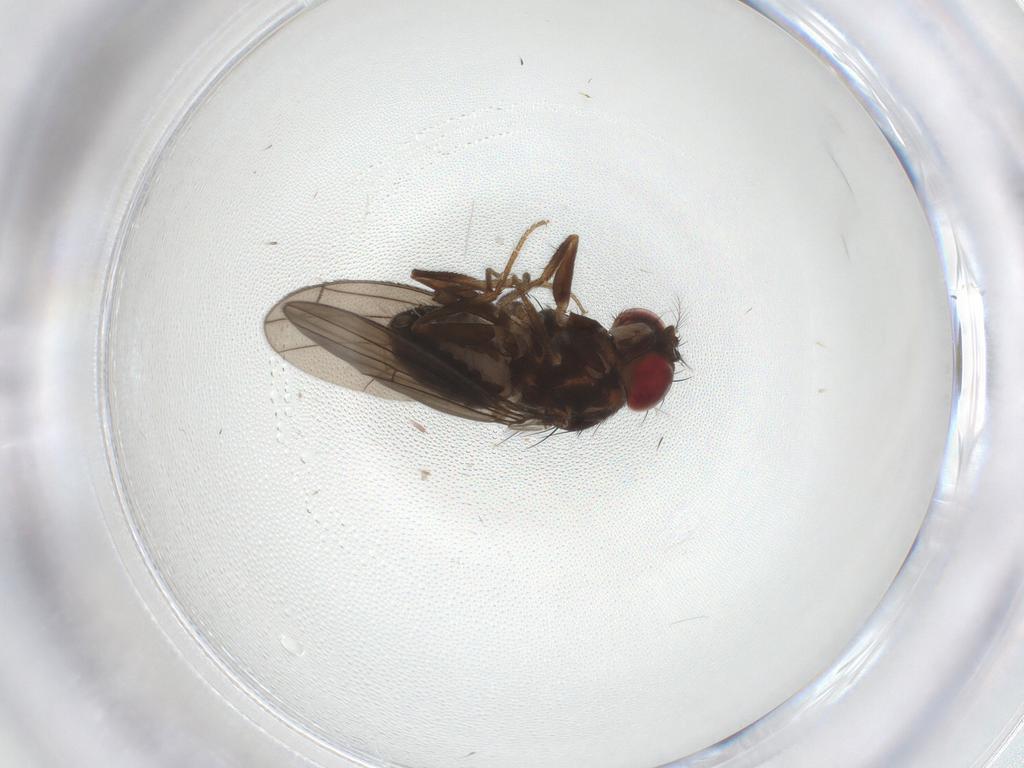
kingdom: Animalia
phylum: Arthropoda
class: Insecta
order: Diptera
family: Drosophilidae
